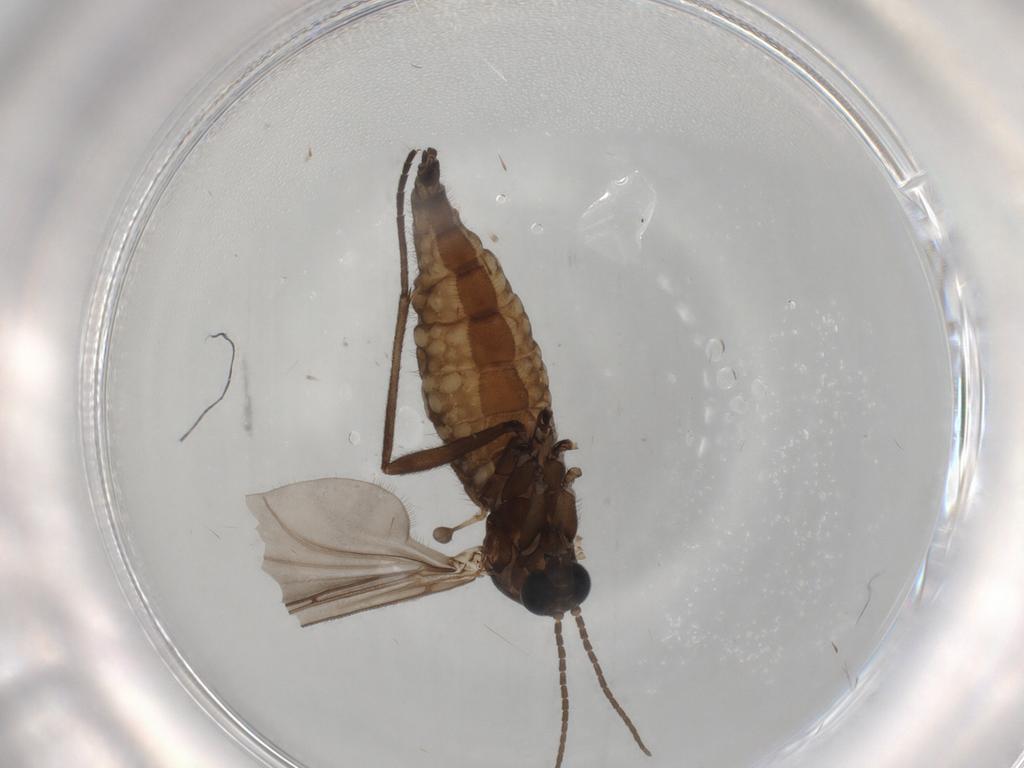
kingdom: Animalia
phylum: Arthropoda
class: Insecta
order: Diptera
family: Sciaridae
